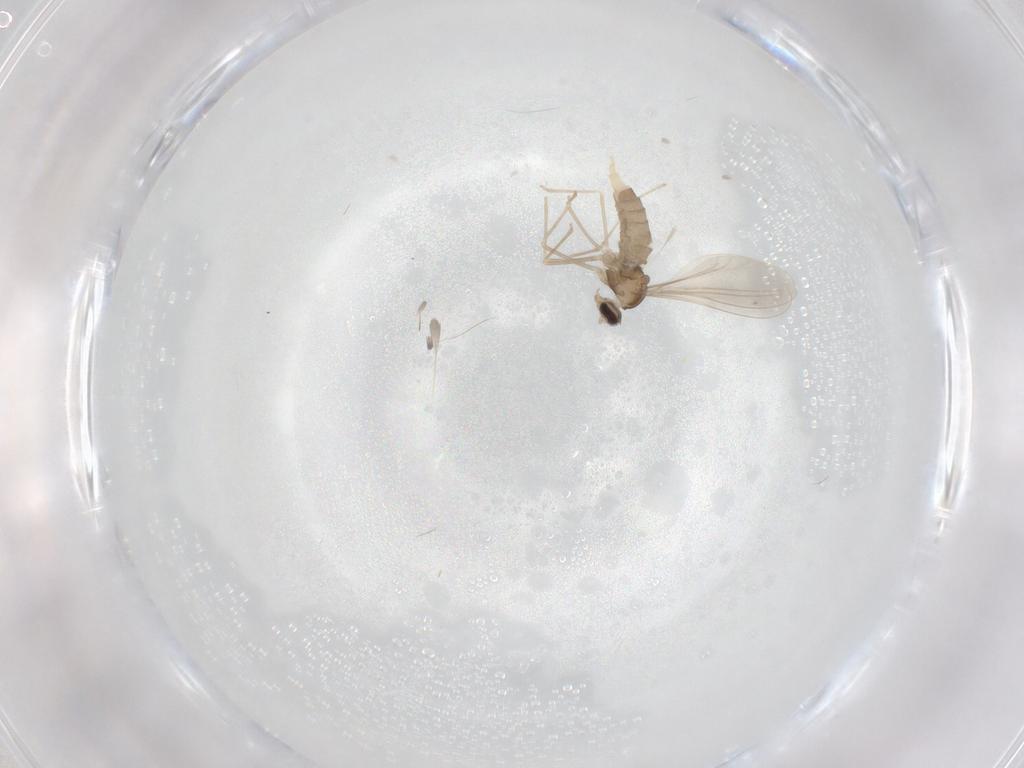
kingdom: Animalia
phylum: Arthropoda
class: Insecta
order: Diptera
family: Cecidomyiidae
